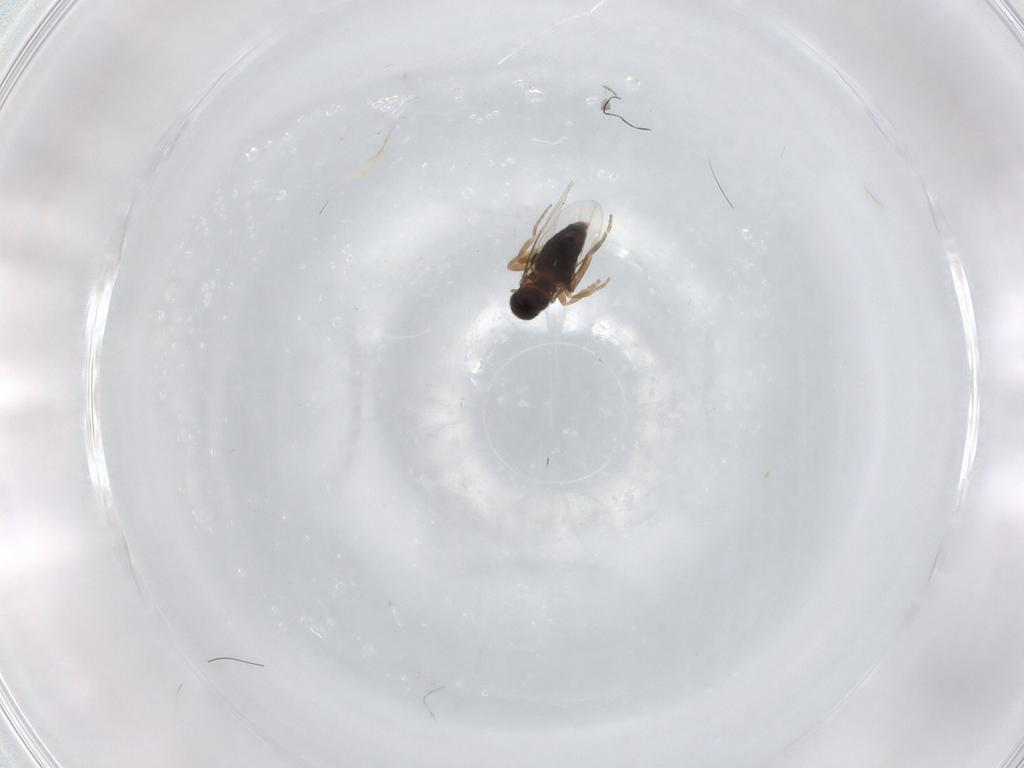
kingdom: Animalia
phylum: Arthropoda
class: Insecta
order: Diptera
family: Phoridae
